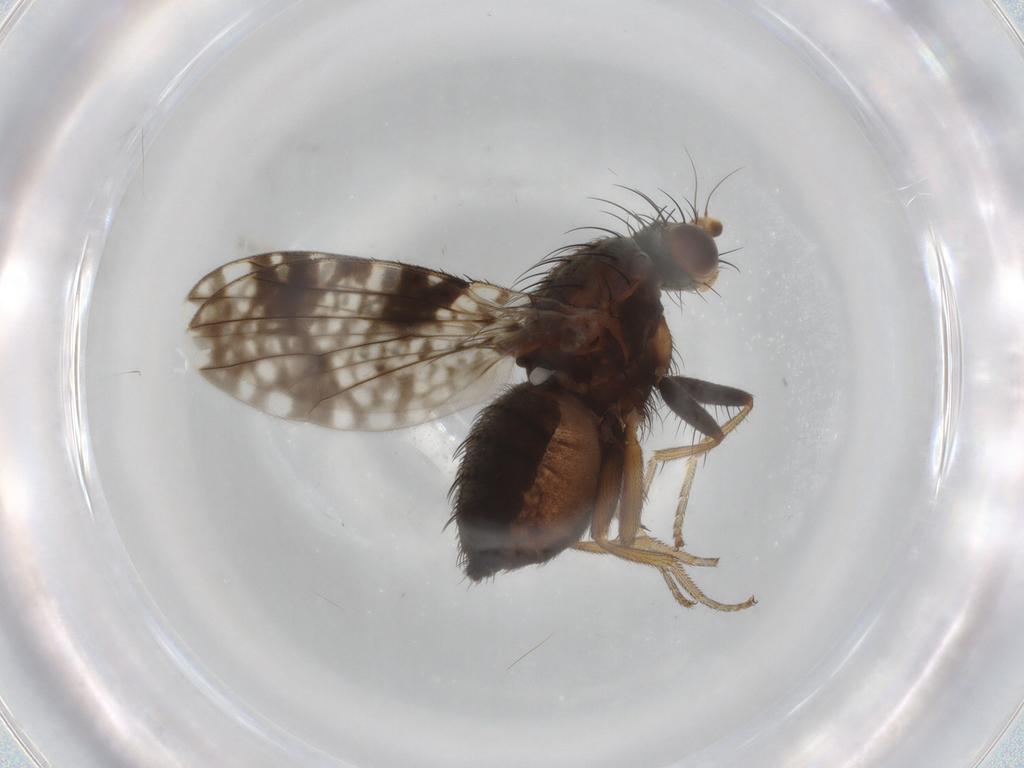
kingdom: Animalia
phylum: Arthropoda
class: Insecta
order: Diptera
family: Tephritidae
